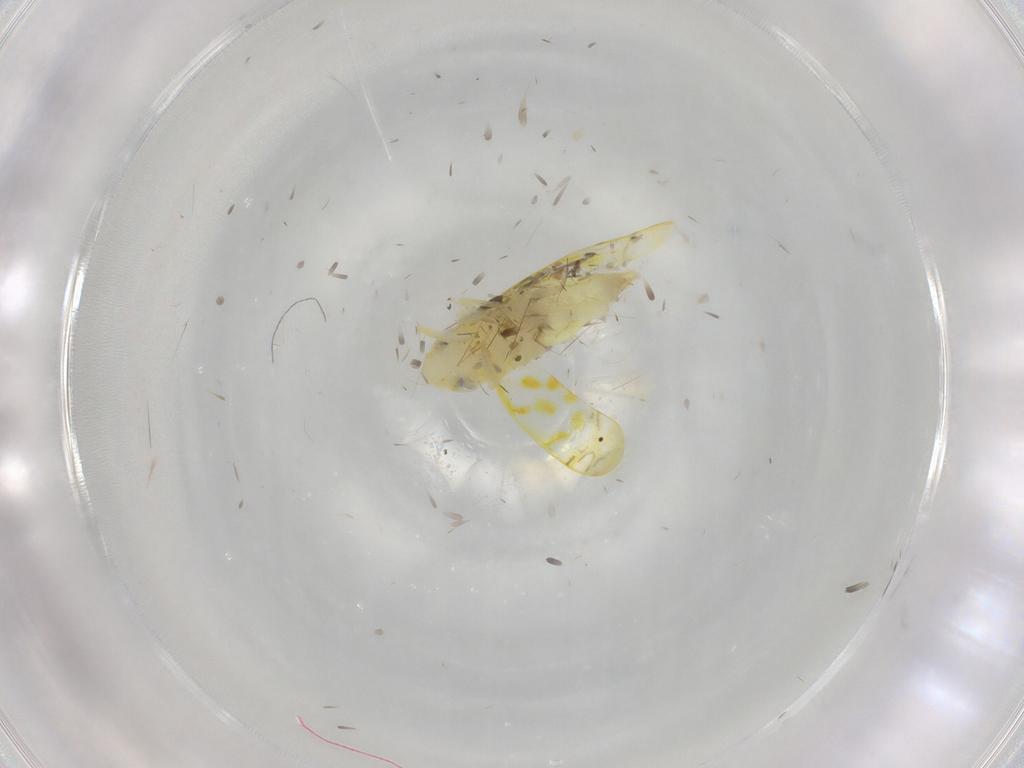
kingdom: Animalia
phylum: Arthropoda
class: Insecta
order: Hemiptera
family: Cicadellidae
